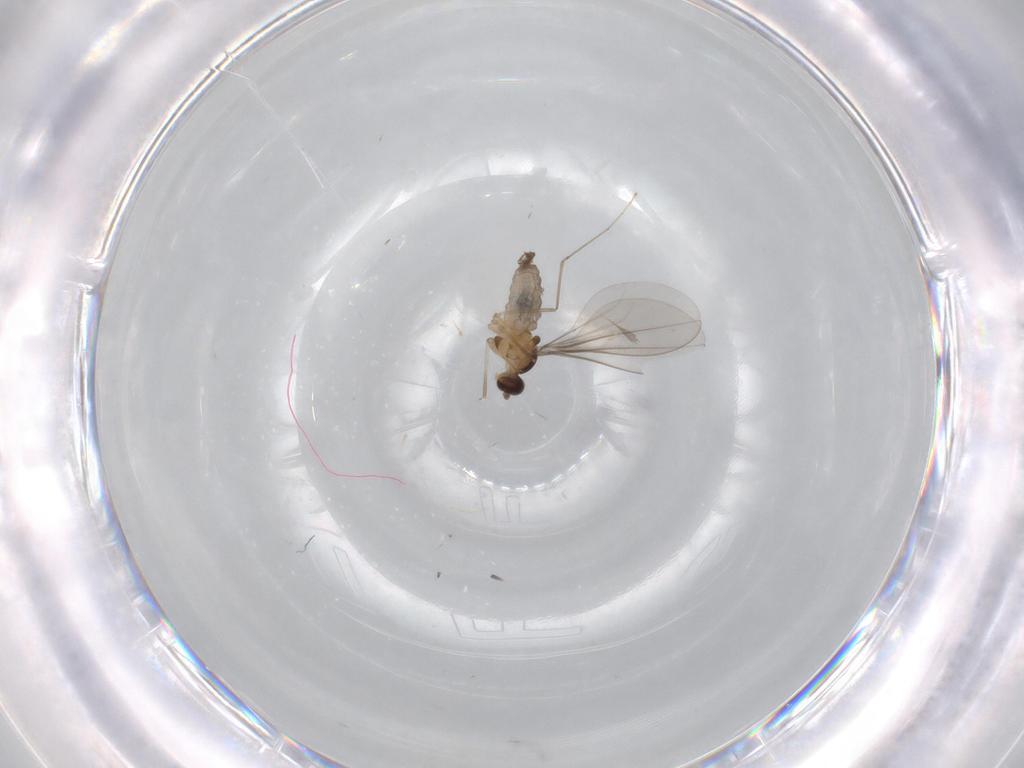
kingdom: Animalia
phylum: Arthropoda
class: Insecta
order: Diptera
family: Cecidomyiidae
